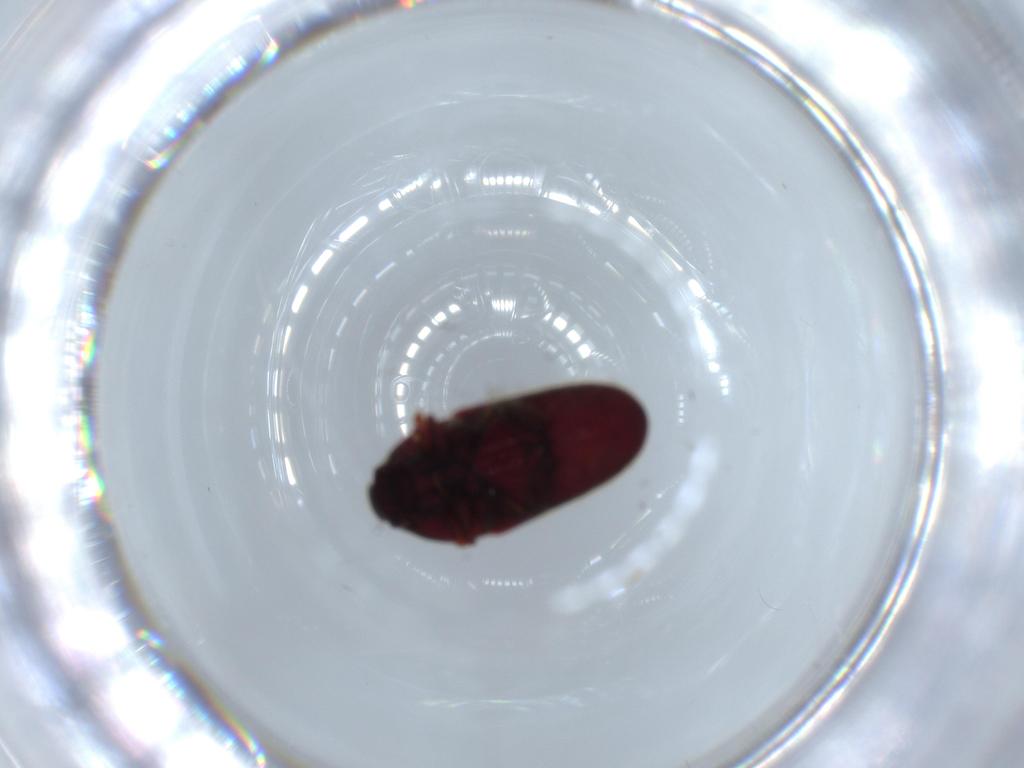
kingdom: Animalia
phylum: Arthropoda
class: Insecta
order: Coleoptera
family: Throscidae
